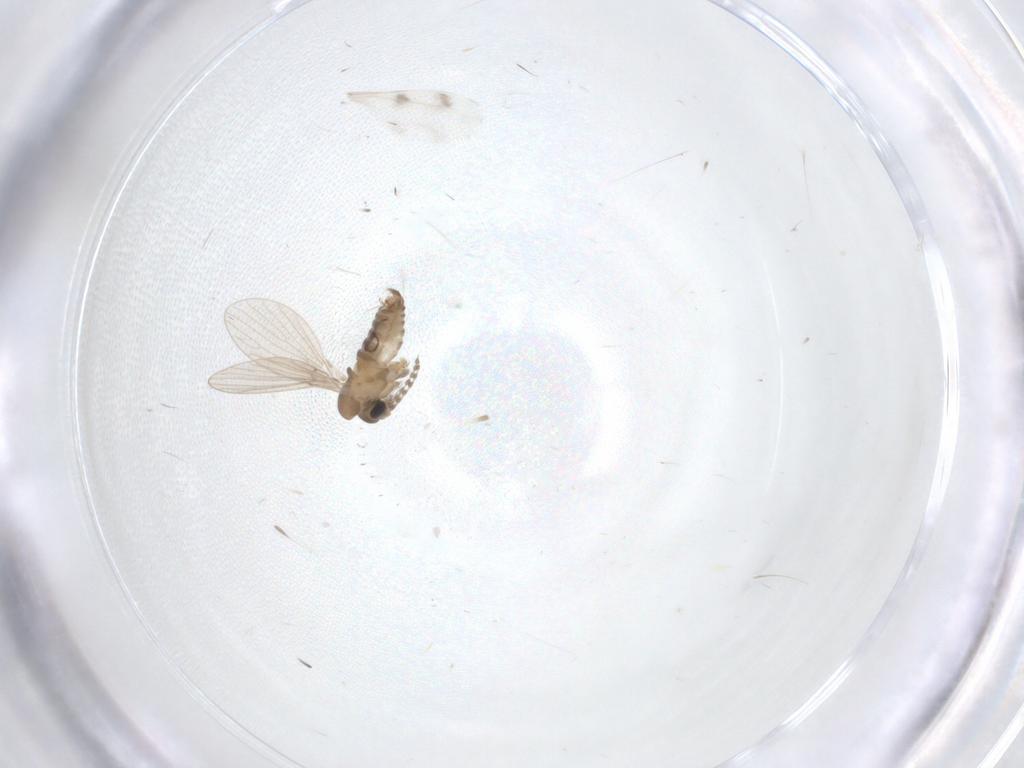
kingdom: Animalia
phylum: Arthropoda
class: Insecta
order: Diptera
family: Psychodidae
